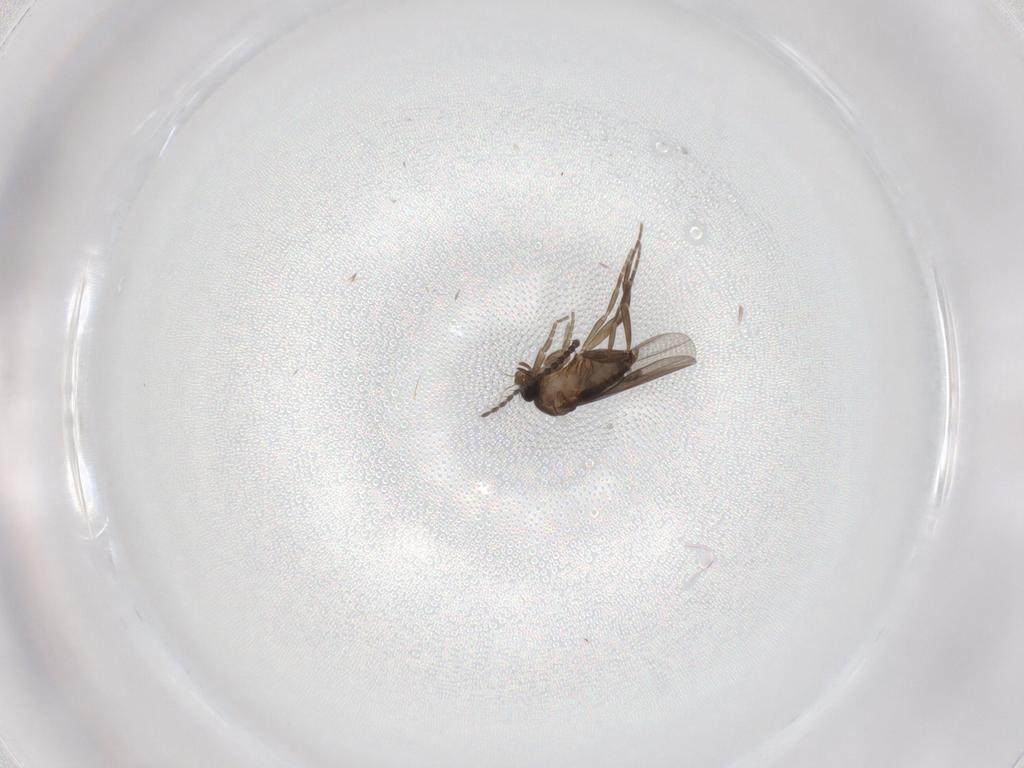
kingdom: Animalia
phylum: Arthropoda
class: Insecta
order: Diptera
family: Limoniidae
